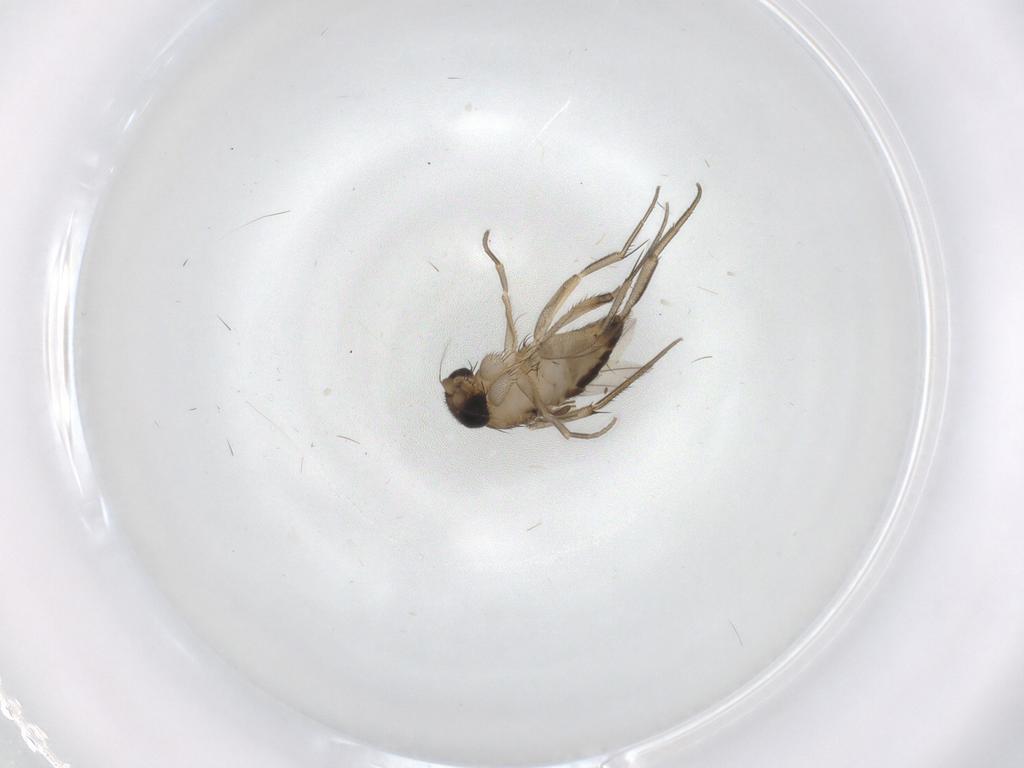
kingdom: Animalia
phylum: Arthropoda
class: Insecta
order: Diptera
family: Phoridae
